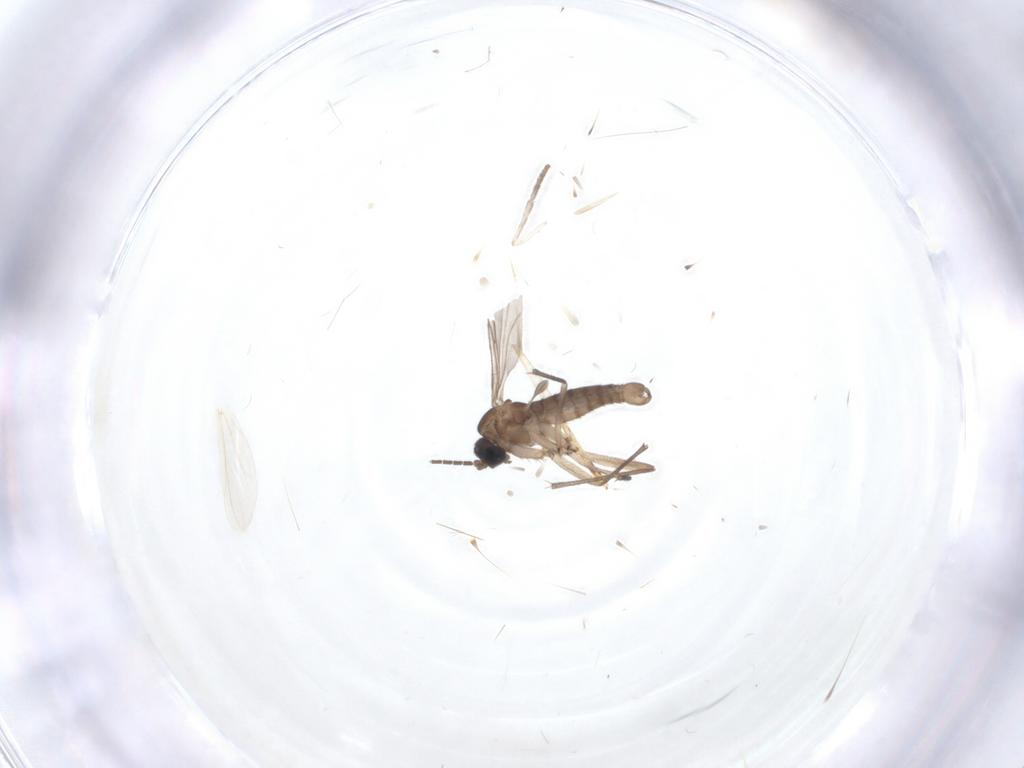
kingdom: Animalia
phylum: Arthropoda
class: Insecta
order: Diptera
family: Sciaridae
